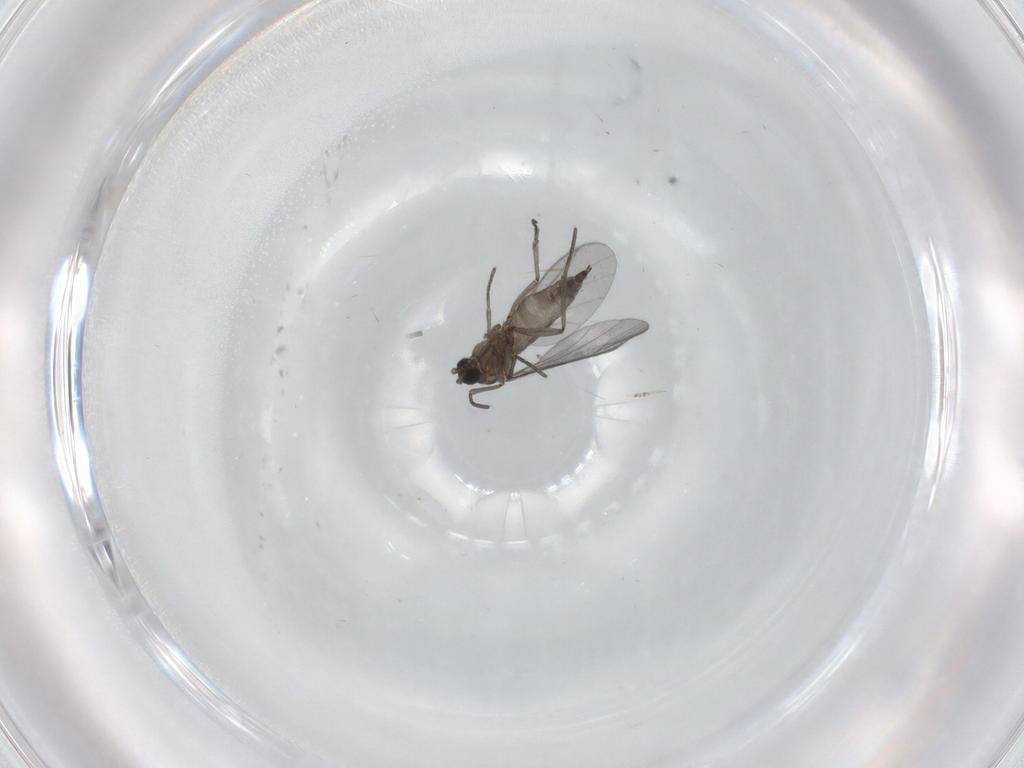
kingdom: Animalia
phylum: Arthropoda
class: Insecta
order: Diptera
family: Sciaridae
